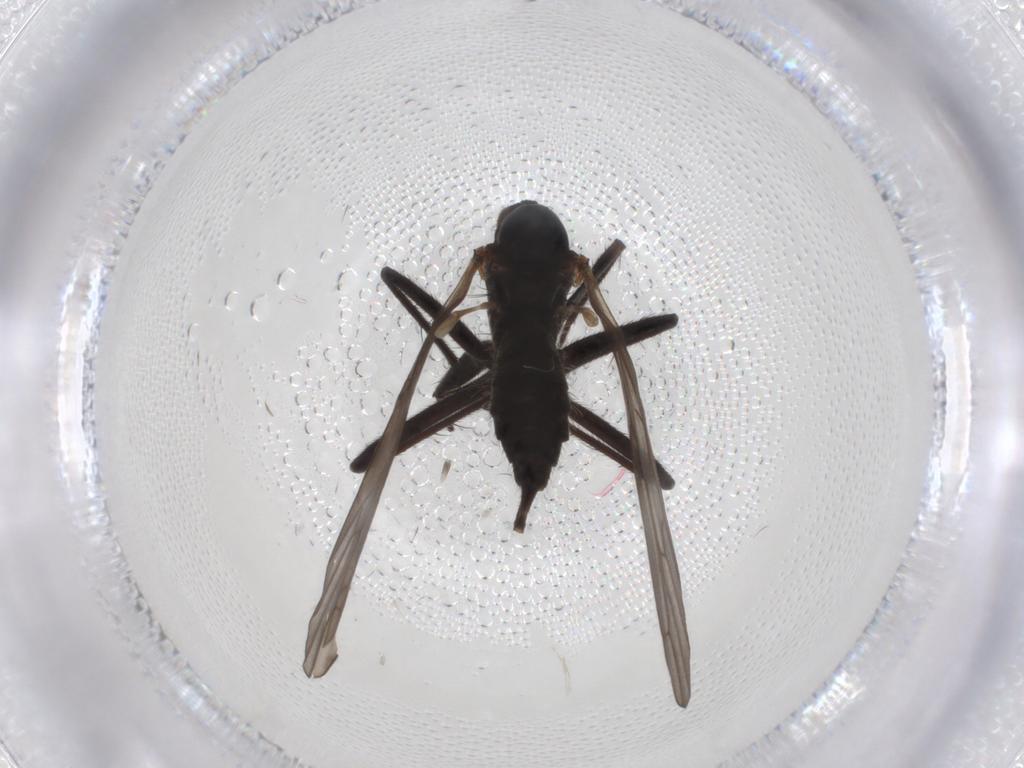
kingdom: Animalia
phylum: Arthropoda
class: Insecta
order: Diptera
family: Empididae
